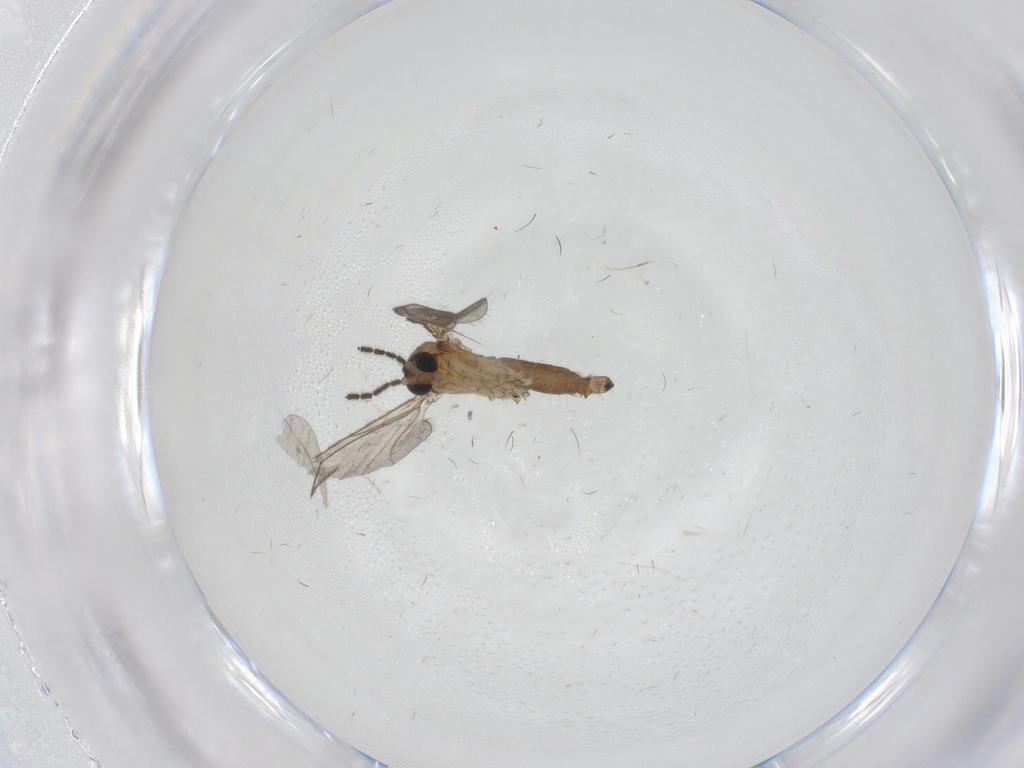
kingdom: Animalia
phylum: Arthropoda
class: Insecta
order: Diptera
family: Sciaridae
